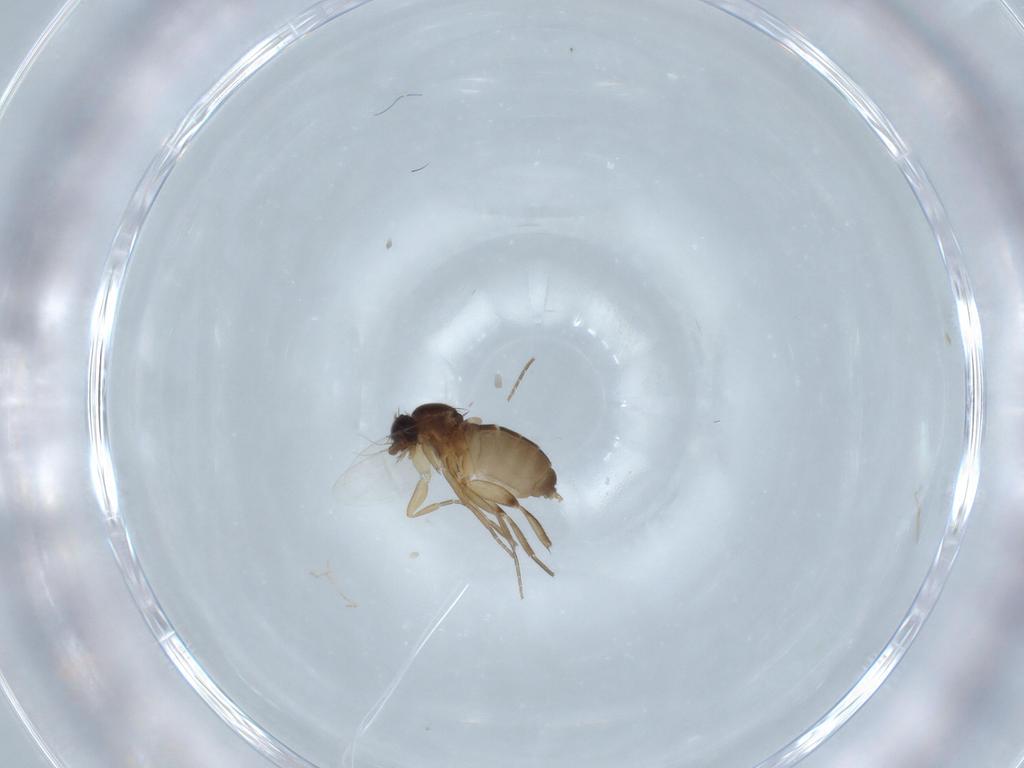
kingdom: Animalia
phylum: Arthropoda
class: Insecta
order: Diptera
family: Phoridae
